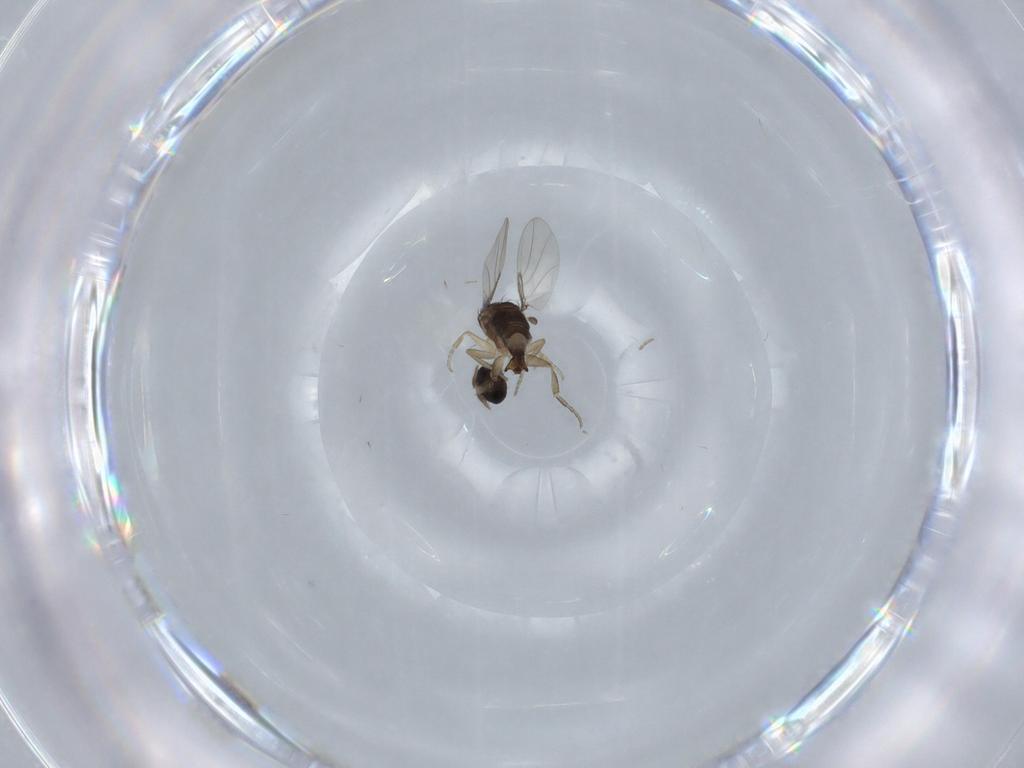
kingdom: Animalia
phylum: Arthropoda
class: Insecta
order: Diptera
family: Phoridae
